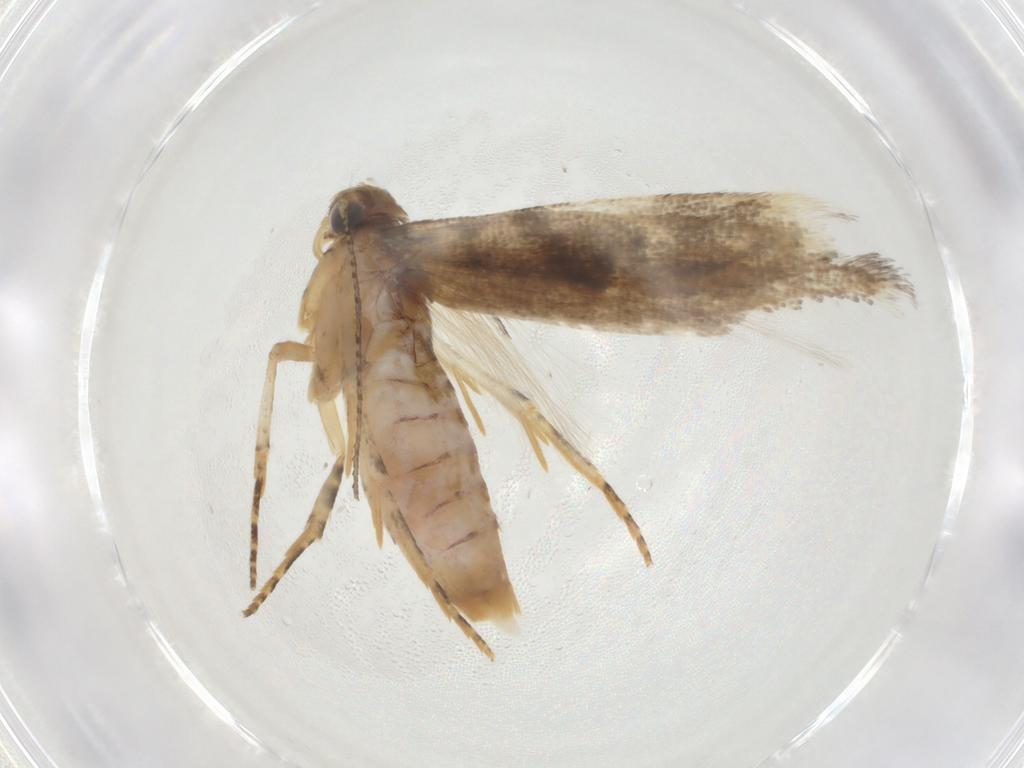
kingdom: Animalia
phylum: Arthropoda
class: Insecta
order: Lepidoptera
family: Gelechiidae
